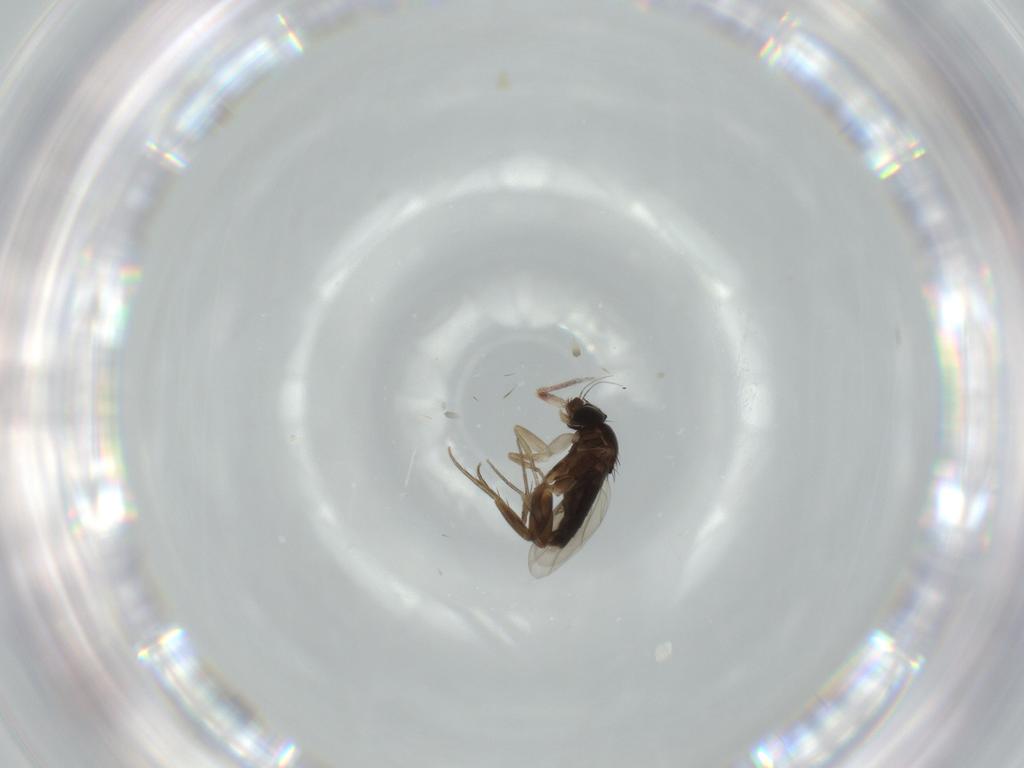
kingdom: Animalia
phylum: Arthropoda
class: Insecta
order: Diptera
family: Phoridae
